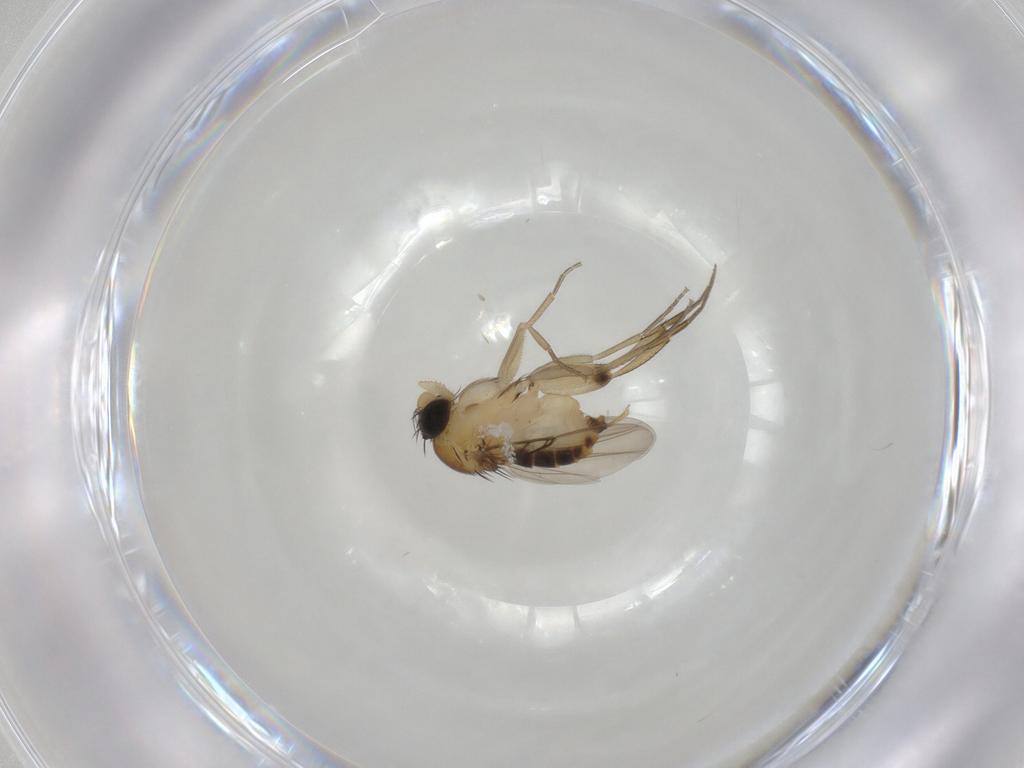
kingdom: Animalia
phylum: Arthropoda
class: Insecta
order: Diptera
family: Phoridae
